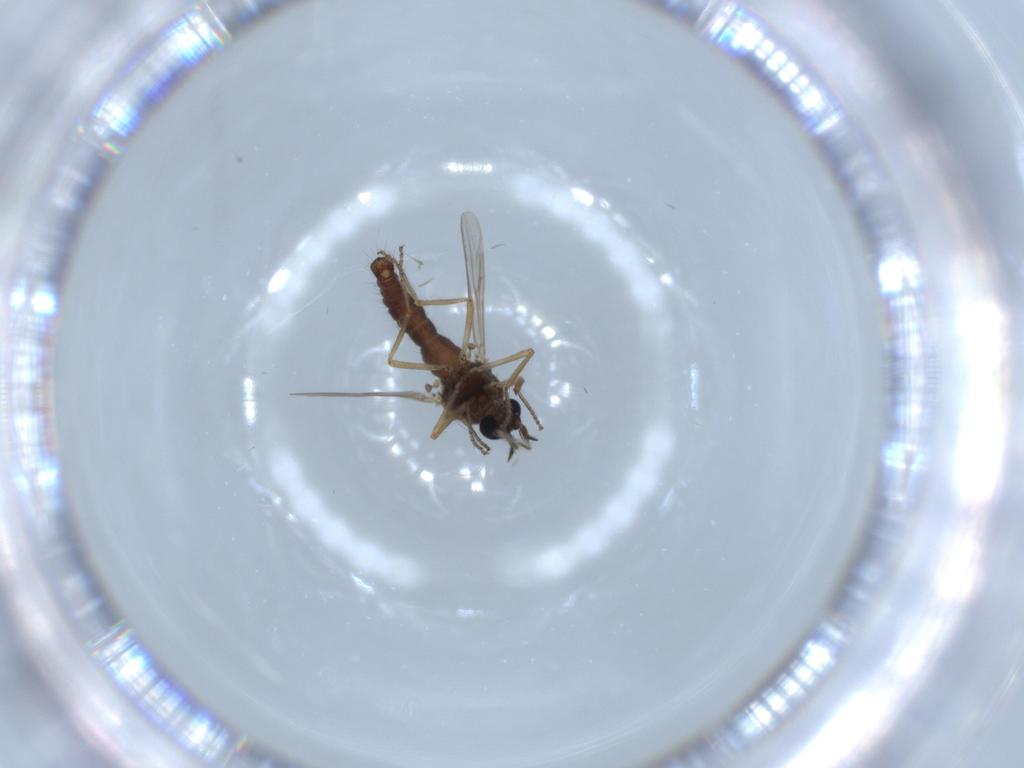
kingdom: Animalia
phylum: Arthropoda
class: Insecta
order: Diptera
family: Ceratopogonidae
